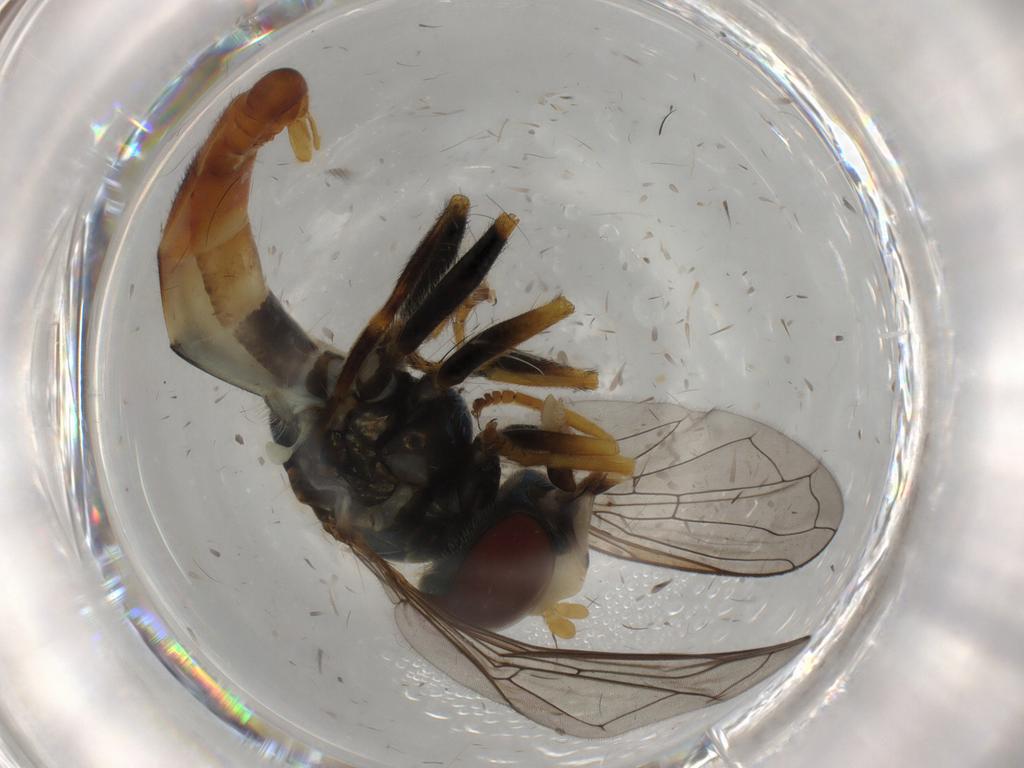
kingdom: Animalia
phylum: Arthropoda
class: Insecta
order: Diptera
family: Syrphidae
